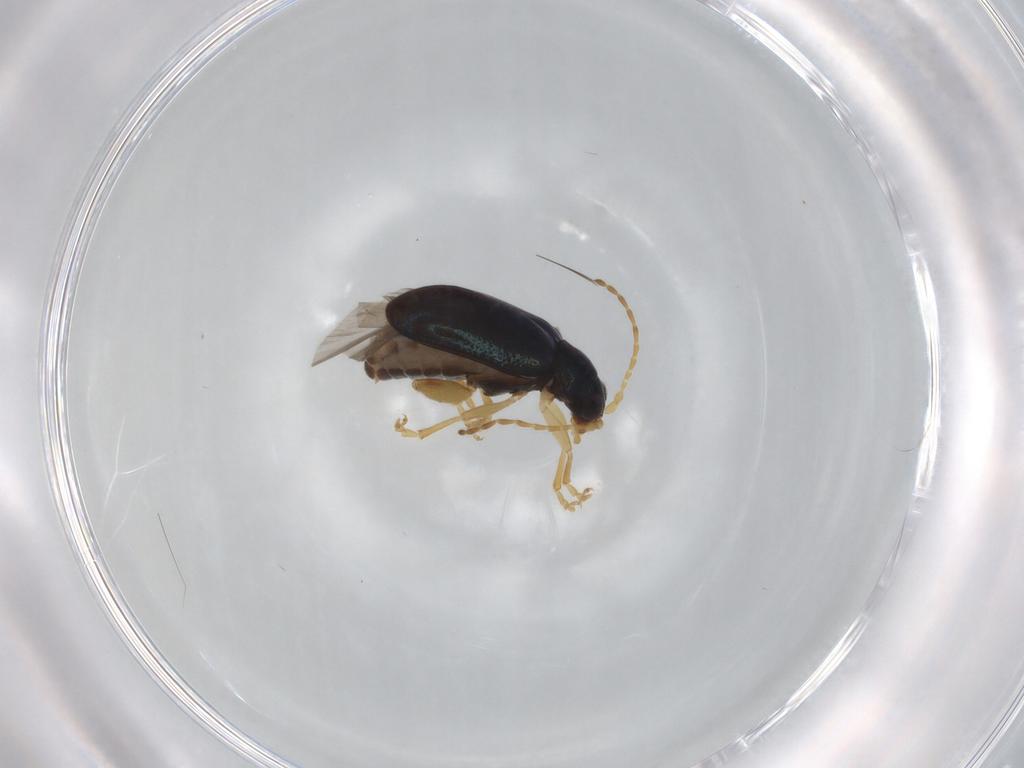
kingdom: Animalia
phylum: Arthropoda
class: Insecta
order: Coleoptera
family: Chrysomelidae
